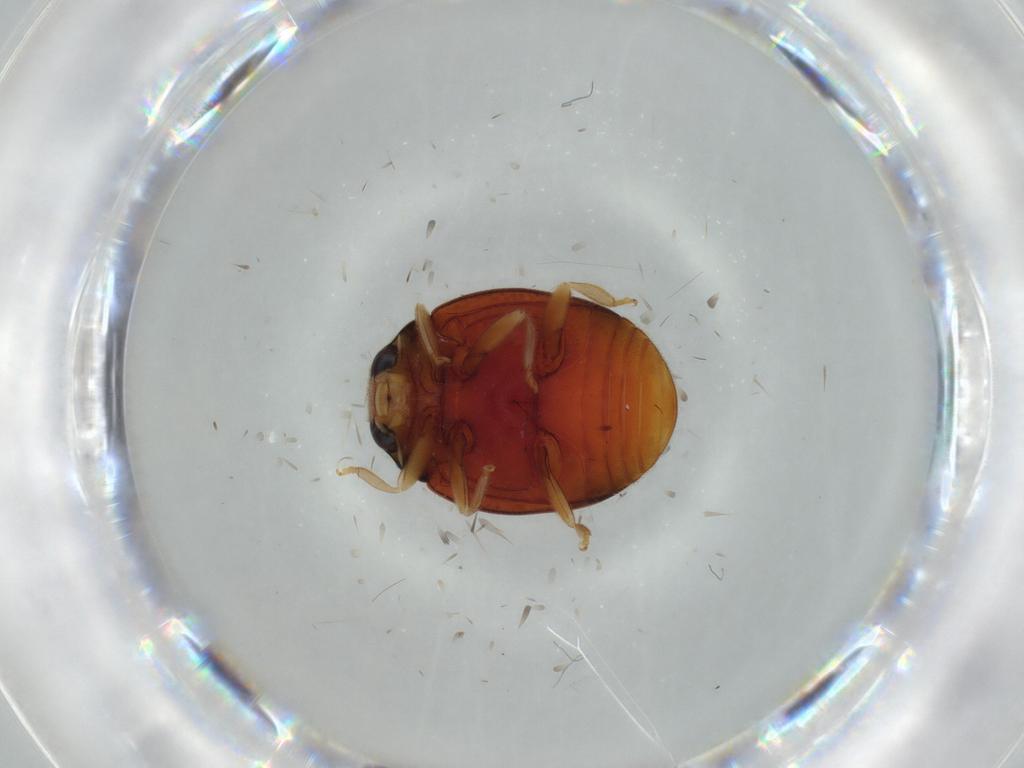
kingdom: Animalia
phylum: Arthropoda
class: Insecta
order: Coleoptera
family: Coccinellidae
